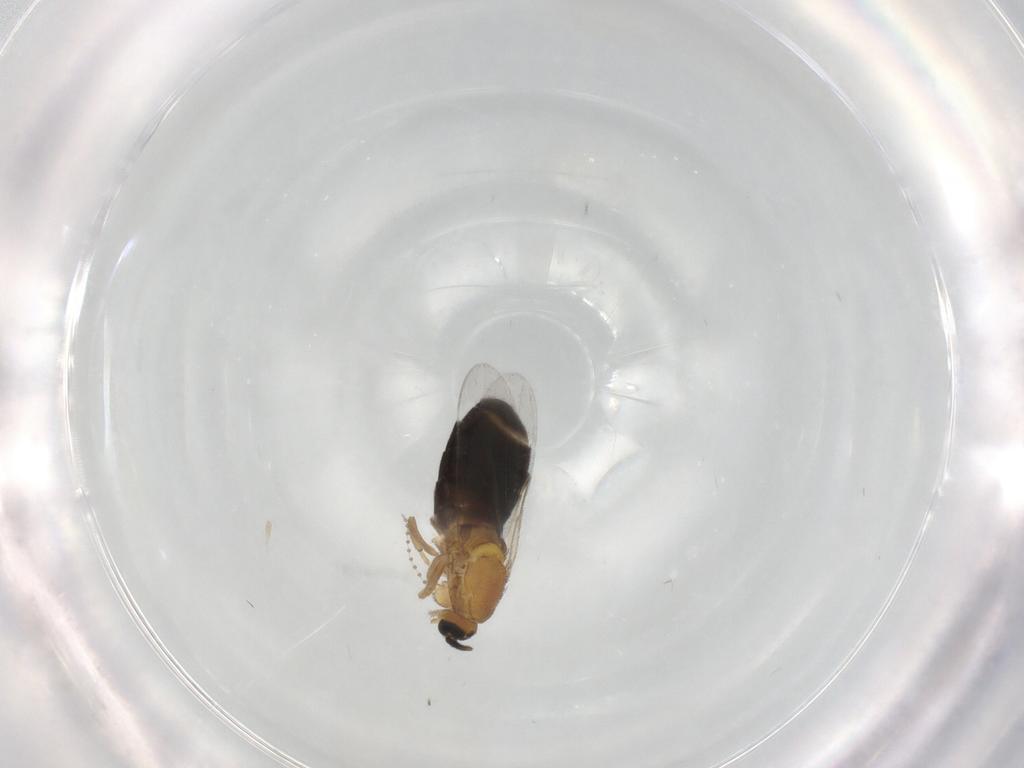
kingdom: Animalia
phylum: Arthropoda
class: Insecta
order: Diptera
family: Scatopsidae
